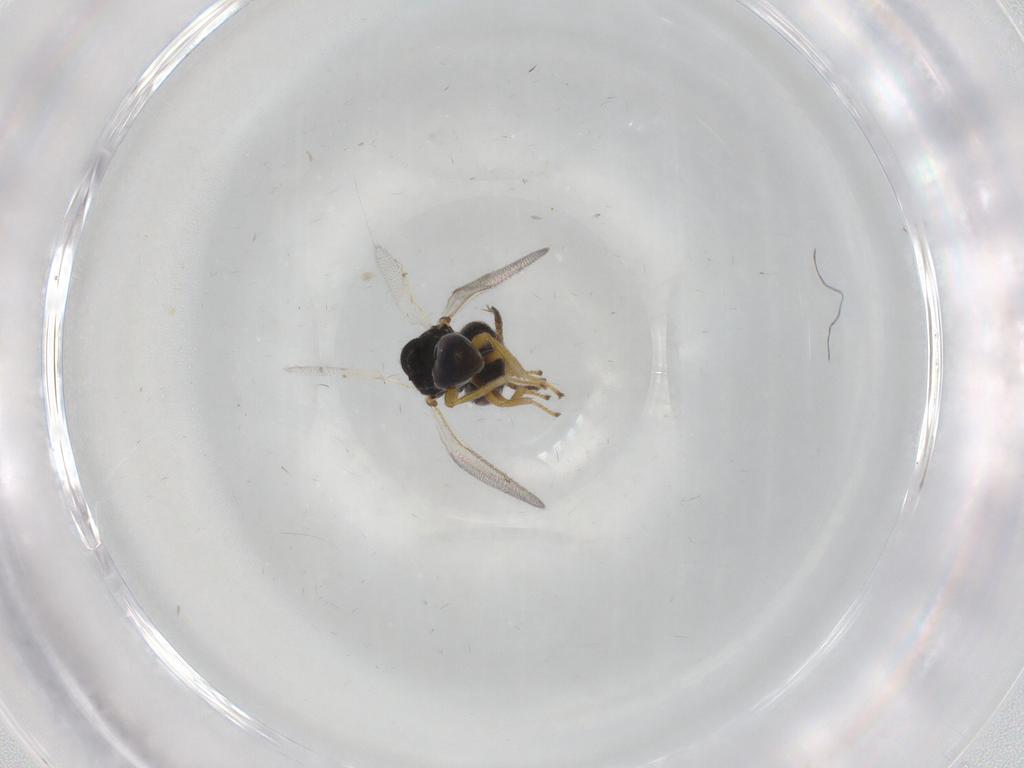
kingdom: Animalia
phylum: Arthropoda
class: Insecta
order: Hymenoptera
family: Pteromalidae
